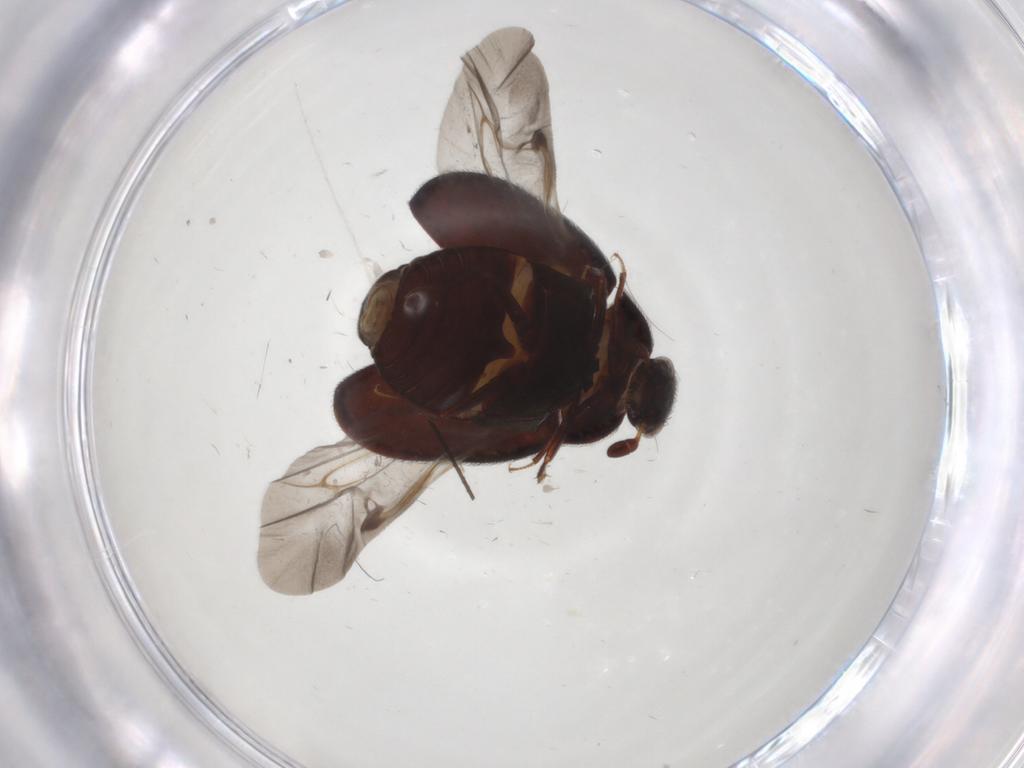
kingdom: Animalia
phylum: Arthropoda
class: Insecta
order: Coleoptera
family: Dermestidae
